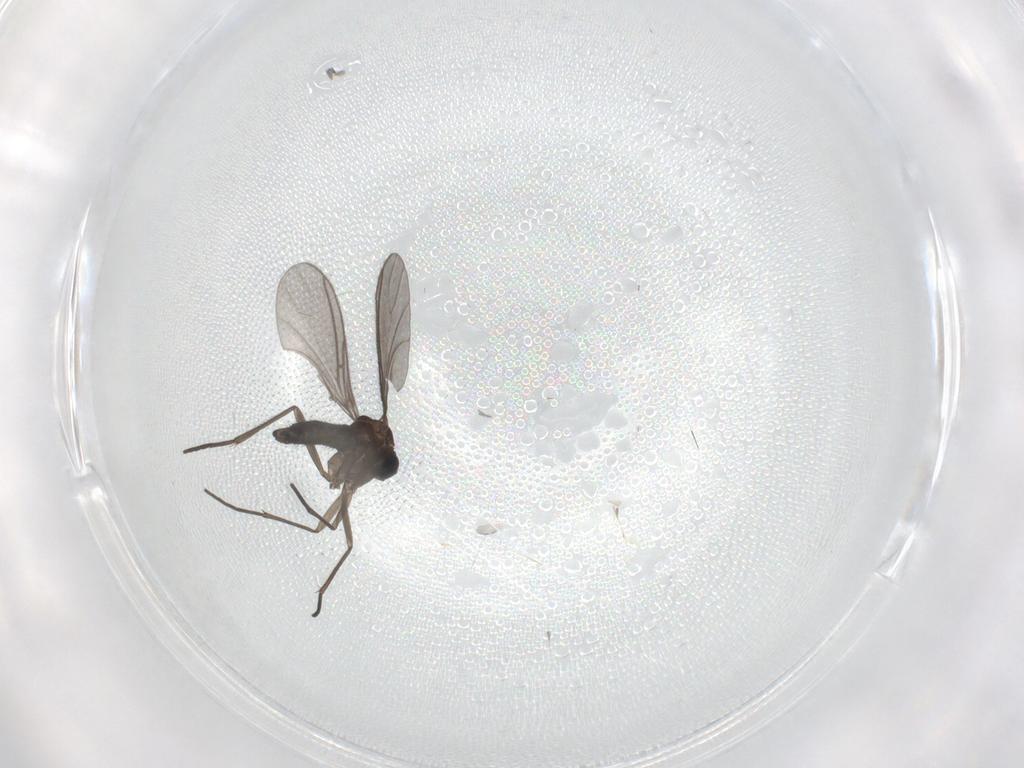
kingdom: Animalia
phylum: Arthropoda
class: Insecta
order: Diptera
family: Sciaridae
